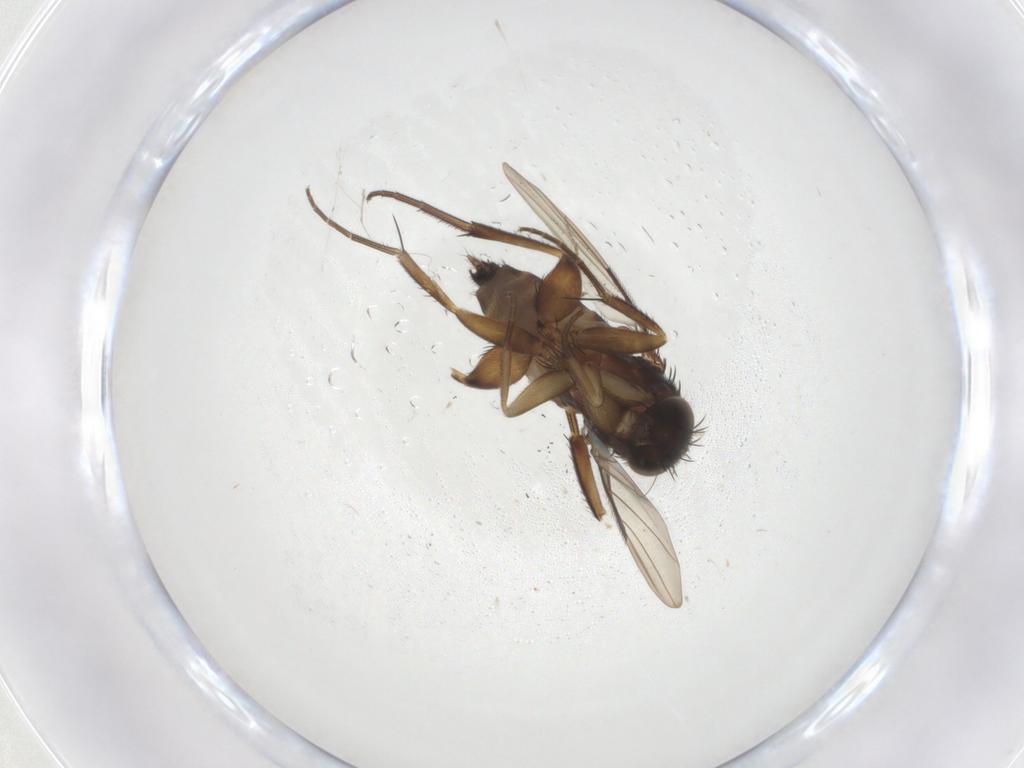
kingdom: Animalia
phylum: Arthropoda
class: Insecta
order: Diptera
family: Phoridae
